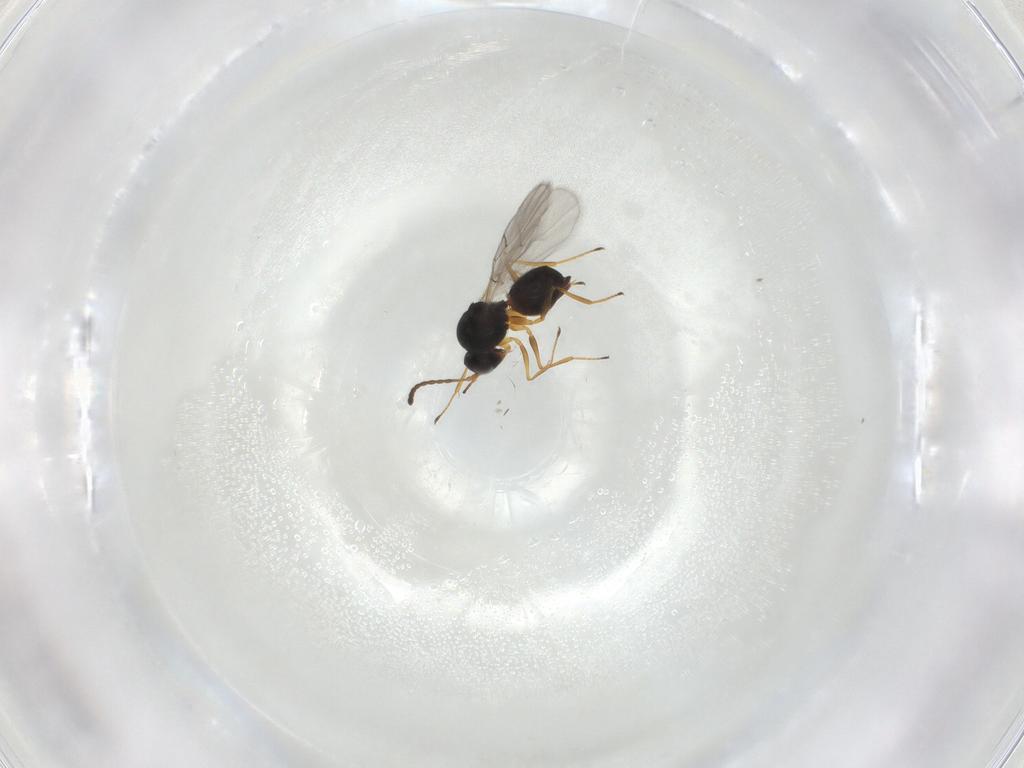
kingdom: Animalia
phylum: Arthropoda
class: Insecta
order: Hymenoptera
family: Figitidae
